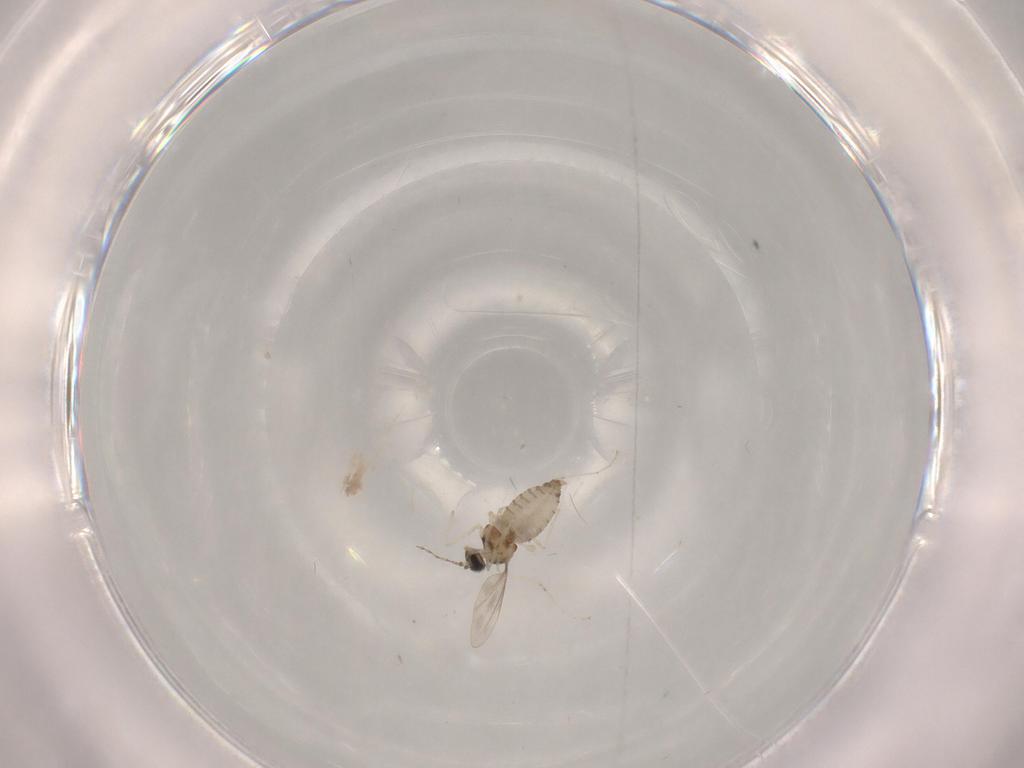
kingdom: Animalia
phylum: Arthropoda
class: Insecta
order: Diptera
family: Cecidomyiidae
